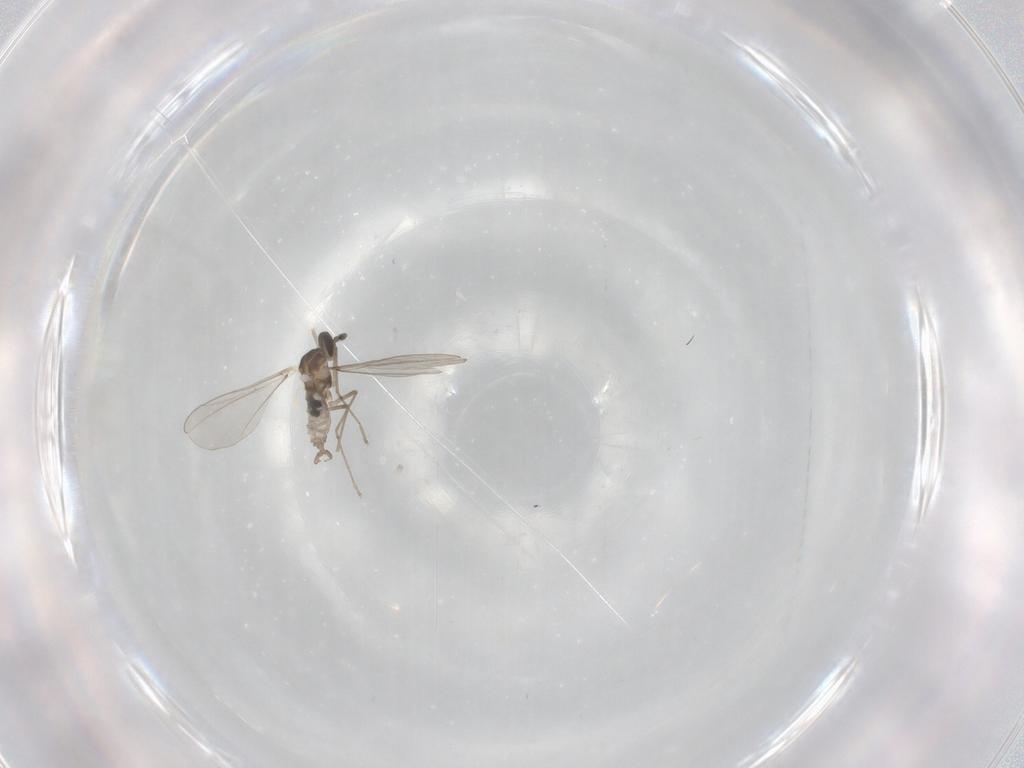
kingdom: Animalia
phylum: Arthropoda
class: Insecta
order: Diptera
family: Cecidomyiidae
